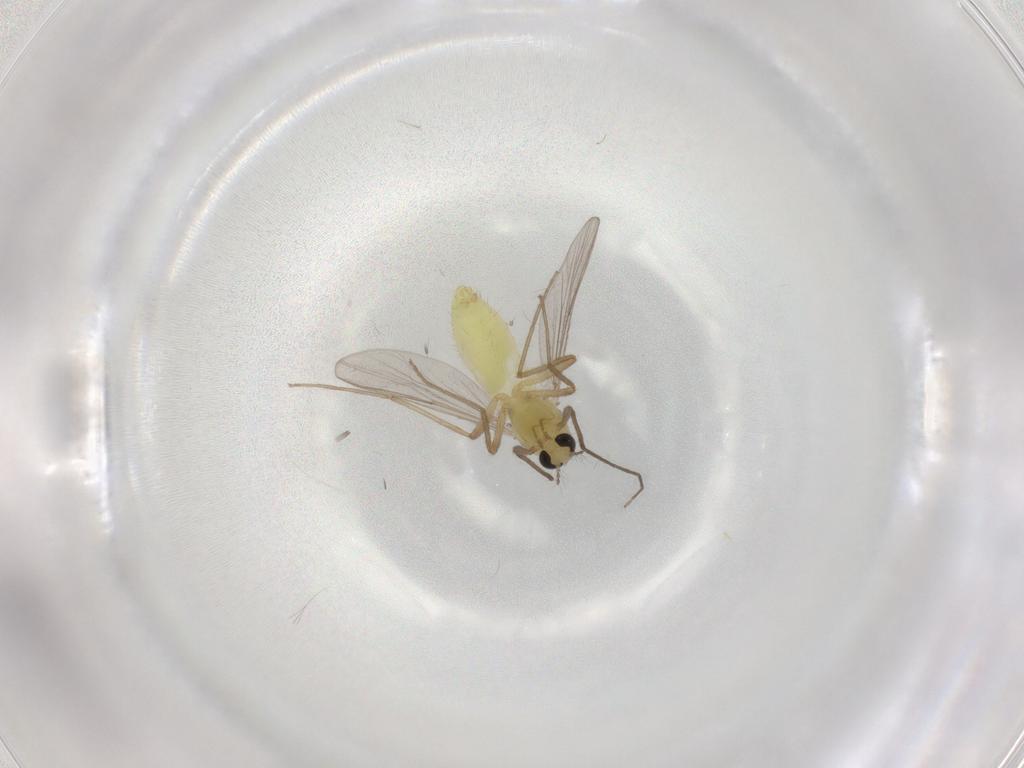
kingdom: Animalia
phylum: Arthropoda
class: Insecta
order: Diptera
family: Chironomidae
